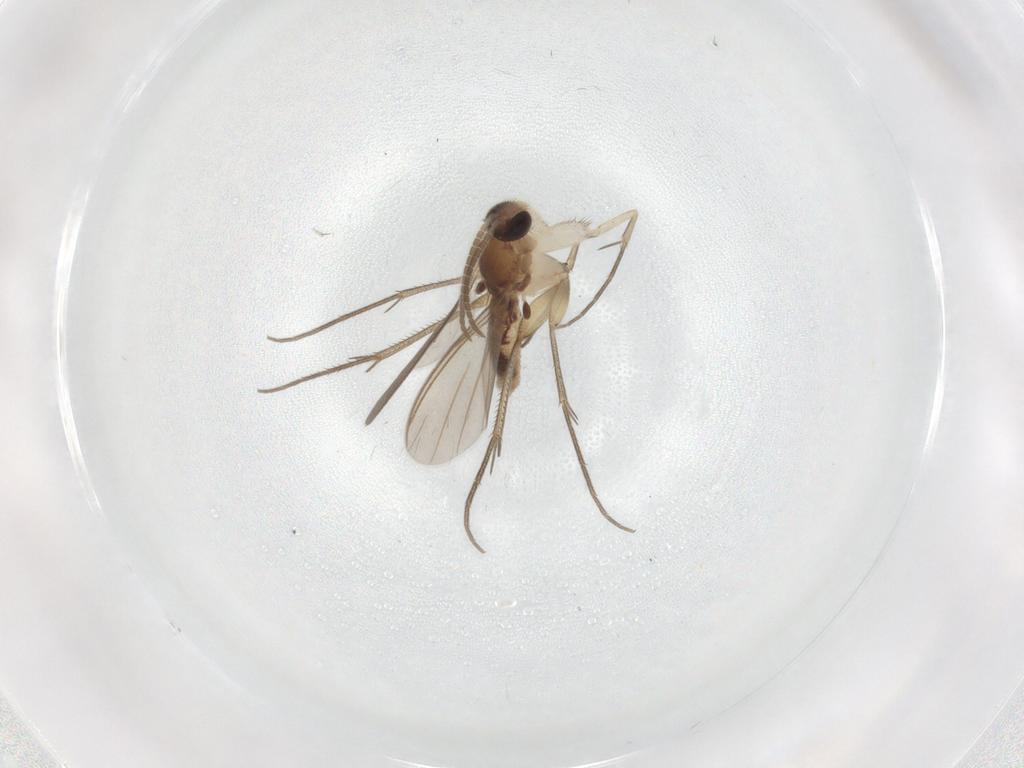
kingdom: Animalia
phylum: Arthropoda
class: Insecta
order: Diptera
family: Mycetophilidae
